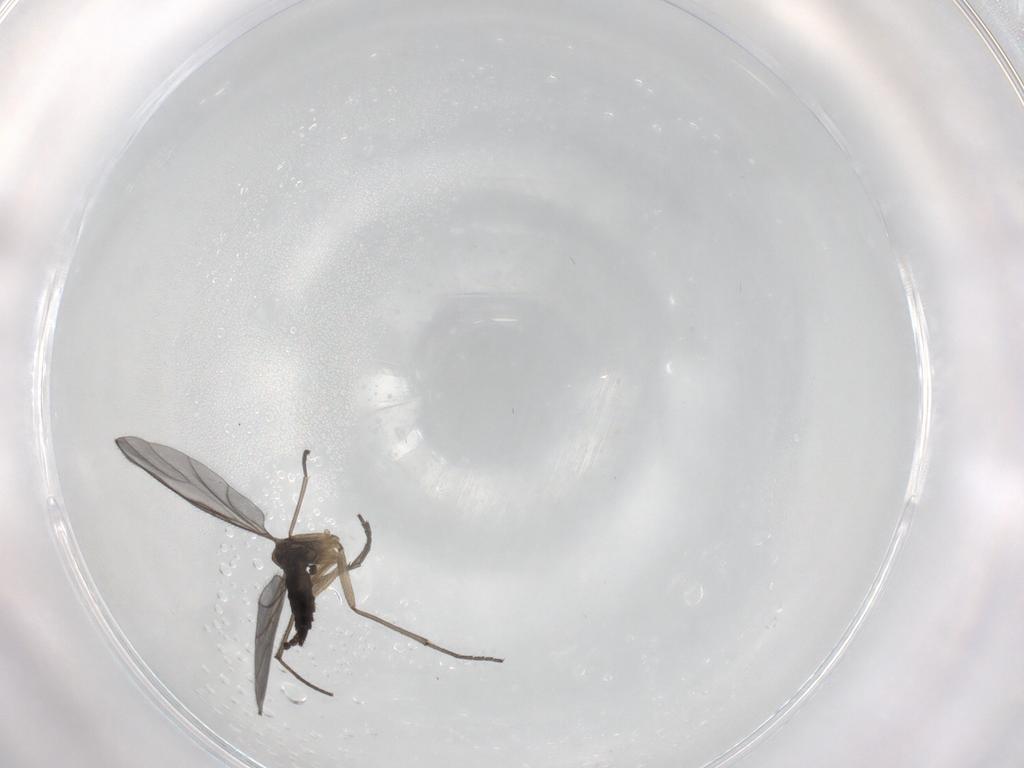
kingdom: Animalia
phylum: Arthropoda
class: Insecta
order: Diptera
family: Sciaridae
